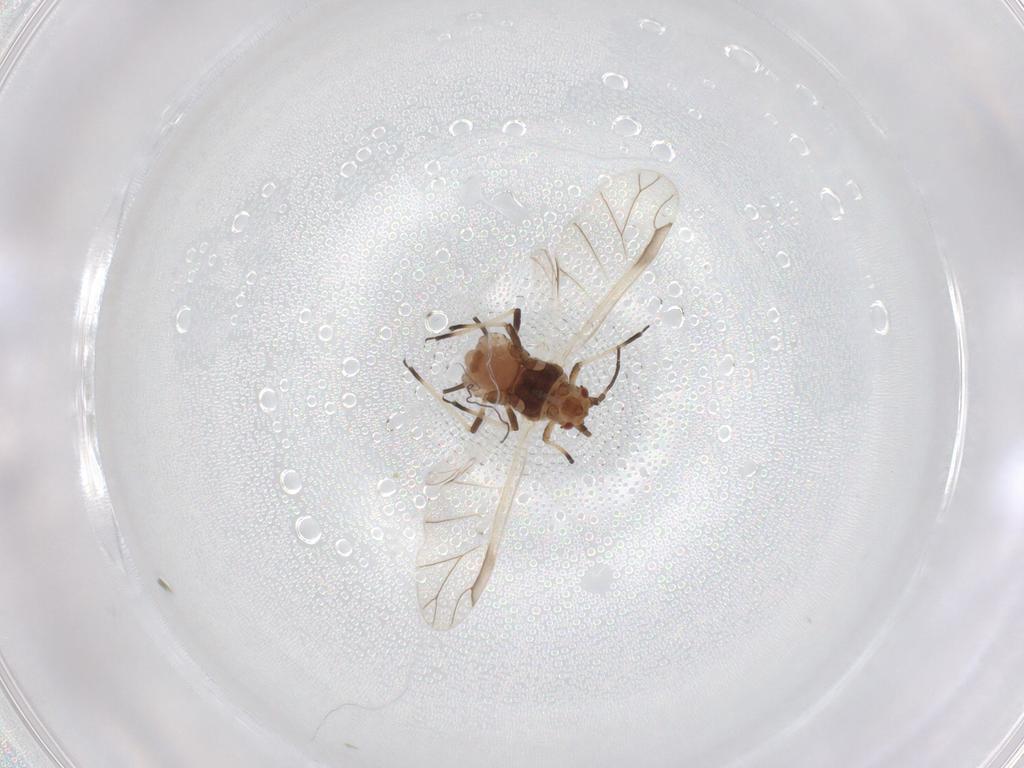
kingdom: Animalia
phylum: Arthropoda
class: Insecta
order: Hemiptera
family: Aphididae
